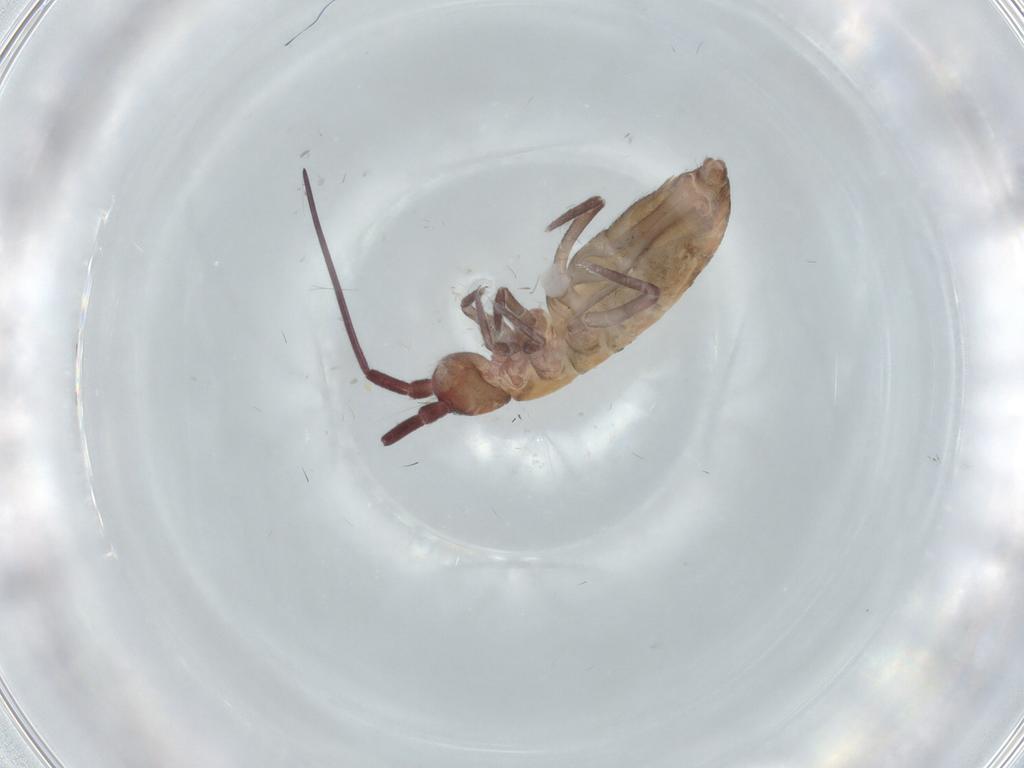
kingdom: Animalia
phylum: Arthropoda
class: Collembola
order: Entomobryomorpha
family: Tomoceridae
